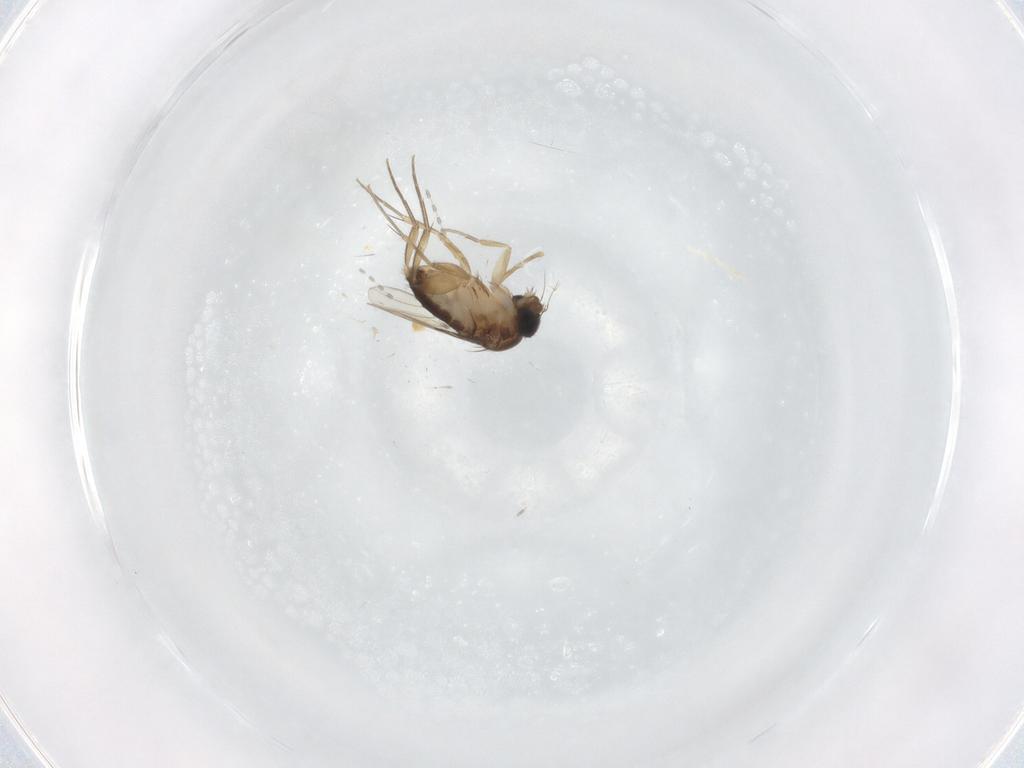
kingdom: Animalia
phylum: Arthropoda
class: Insecta
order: Diptera
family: Phoridae
